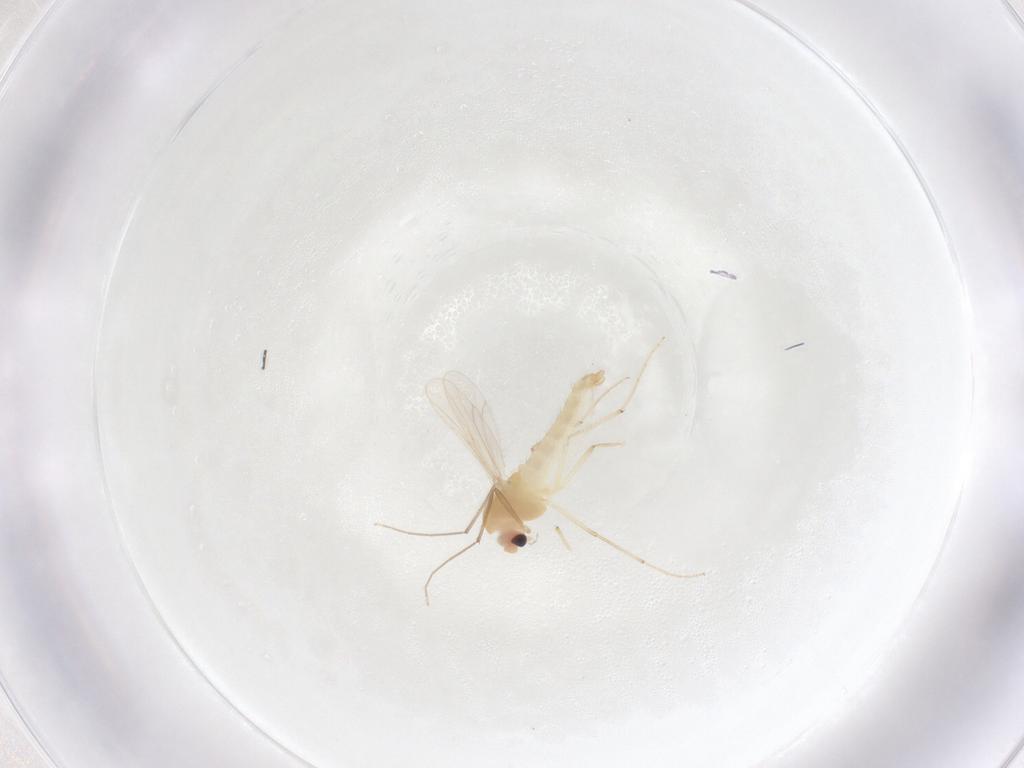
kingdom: Animalia
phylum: Arthropoda
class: Insecta
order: Diptera
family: Chironomidae
